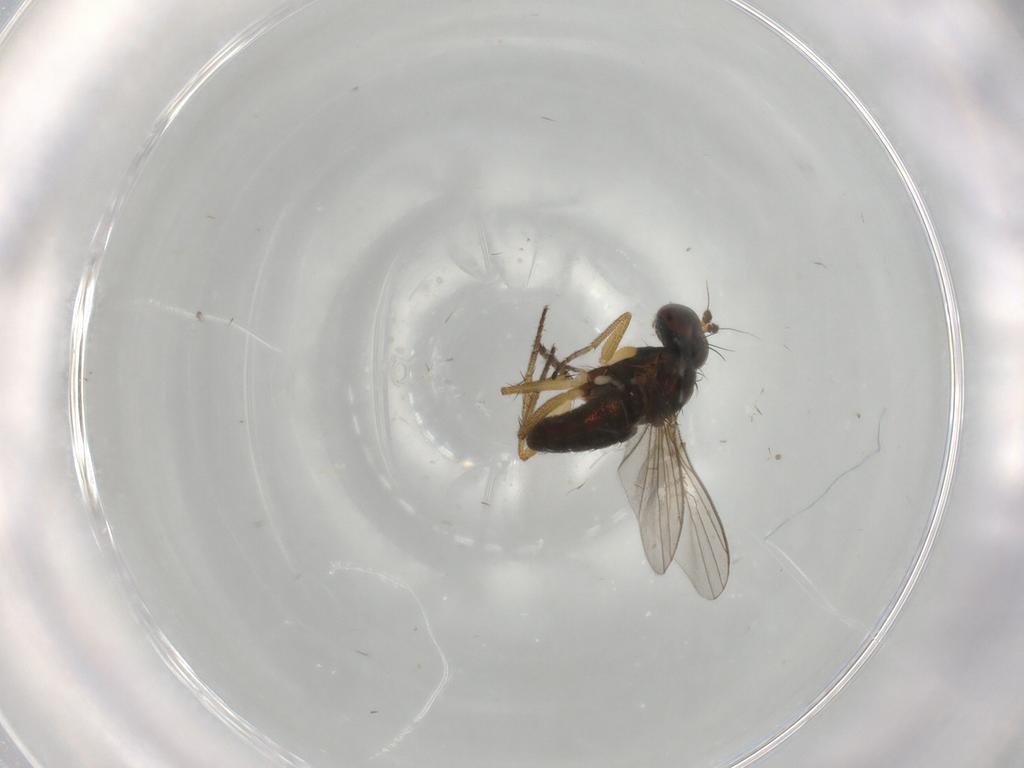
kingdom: Animalia
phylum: Arthropoda
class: Insecta
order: Diptera
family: Dolichopodidae
